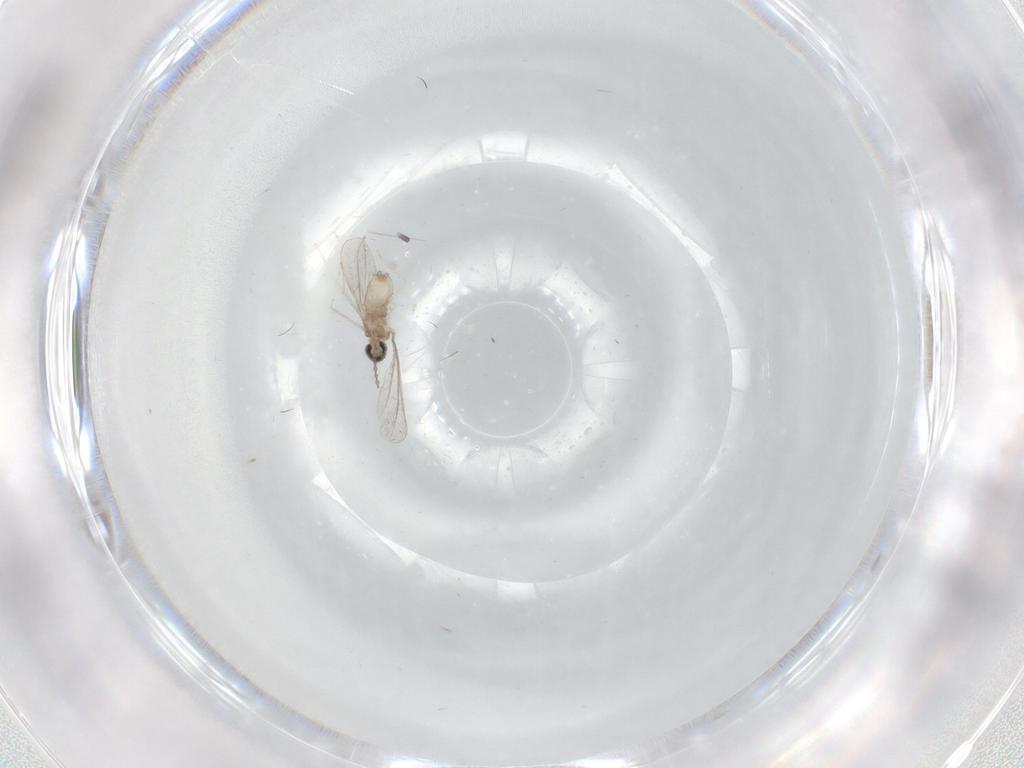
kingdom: Animalia
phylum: Arthropoda
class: Insecta
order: Diptera
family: Cecidomyiidae
